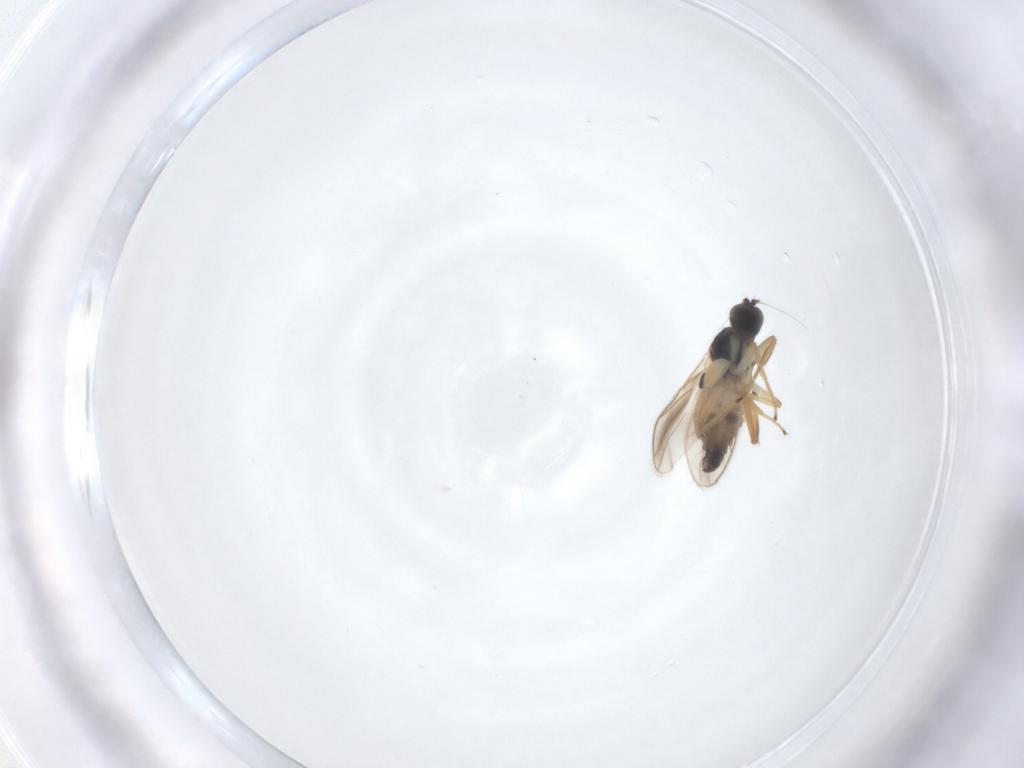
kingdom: Animalia
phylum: Arthropoda
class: Insecta
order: Diptera
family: Hybotidae
